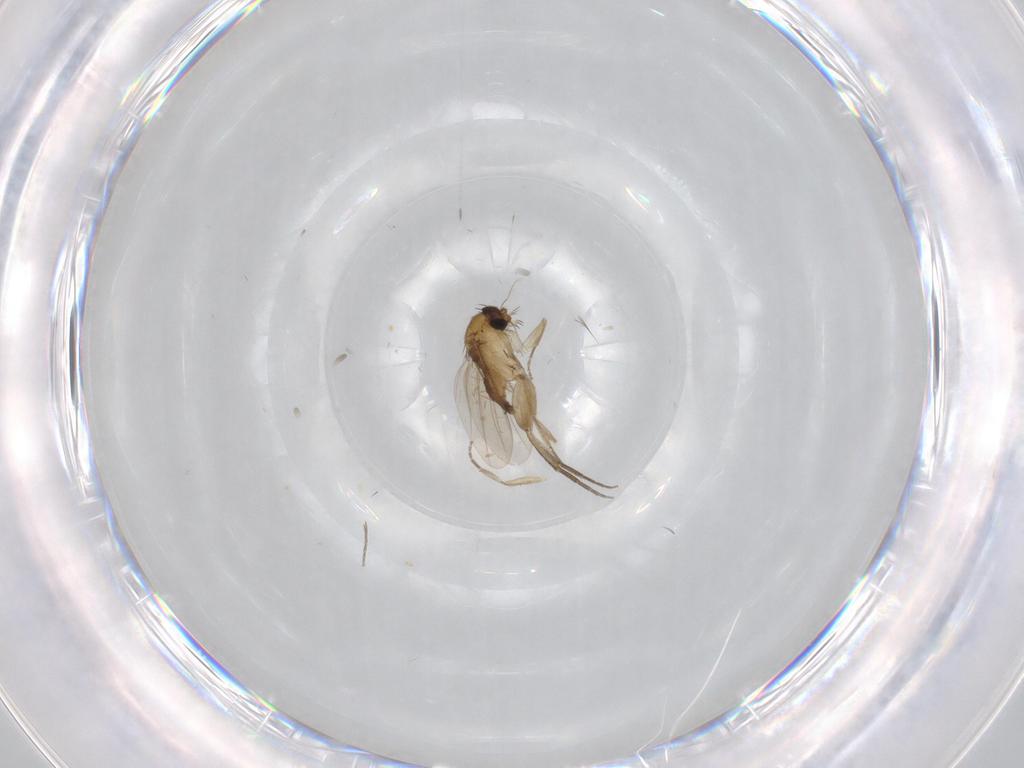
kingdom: Animalia
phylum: Arthropoda
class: Insecta
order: Diptera
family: Phoridae
